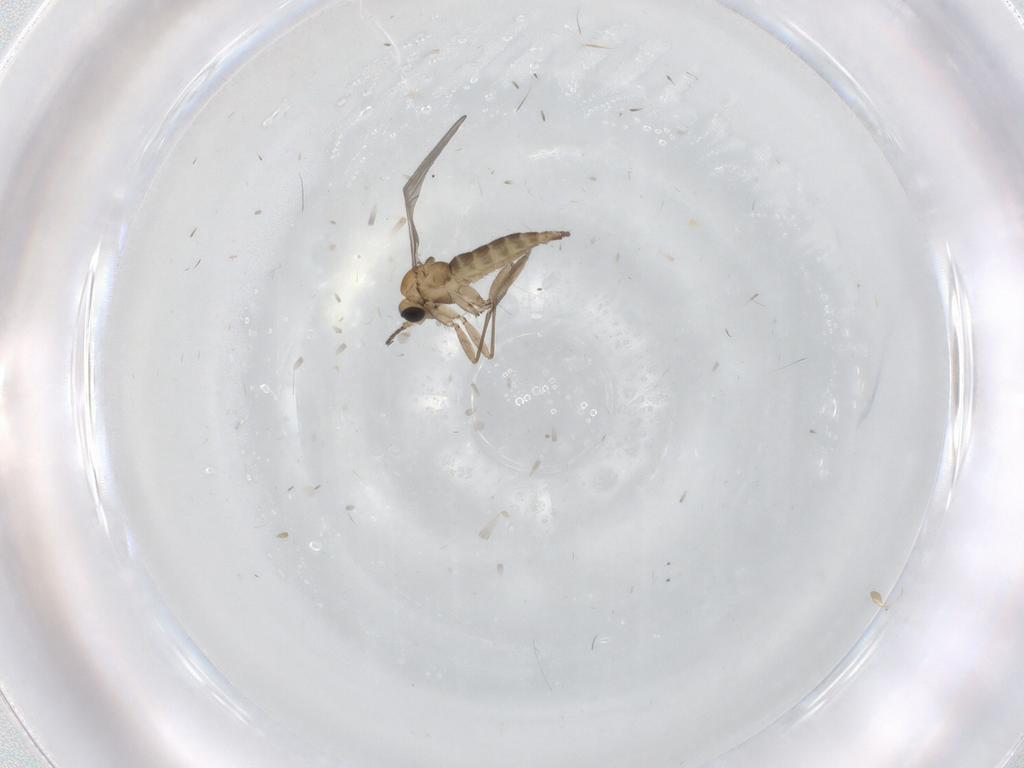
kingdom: Animalia
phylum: Arthropoda
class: Insecta
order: Diptera
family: Sciaridae
